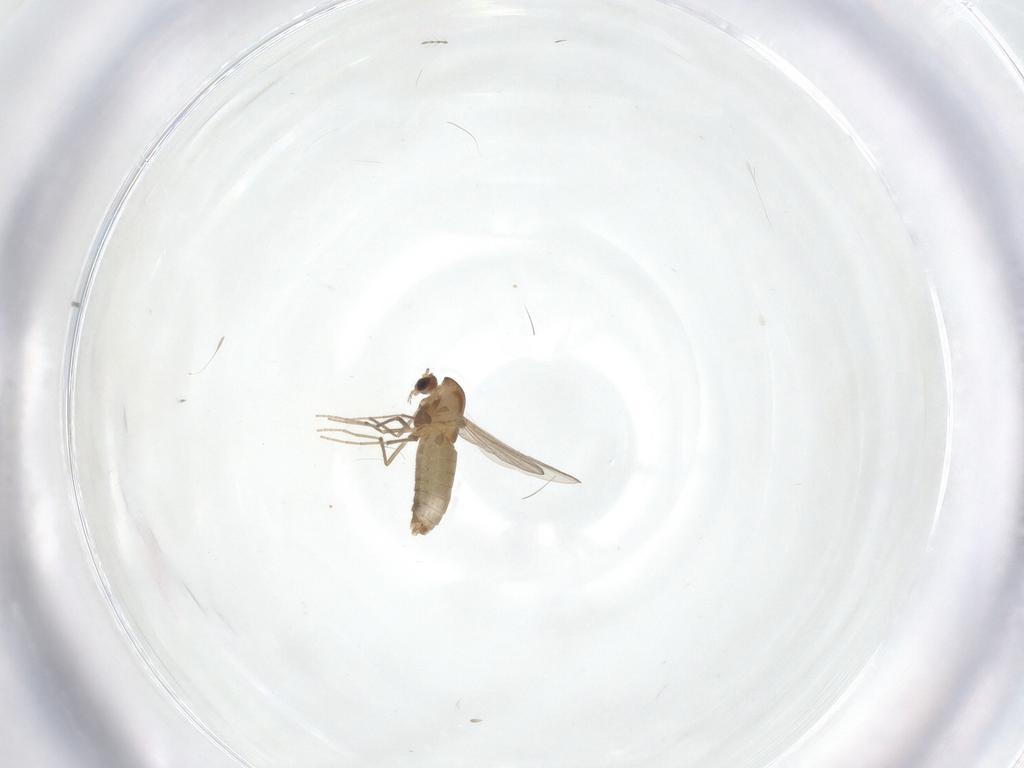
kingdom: Animalia
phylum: Arthropoda
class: Insecta
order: Diptera
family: Chironomidae
